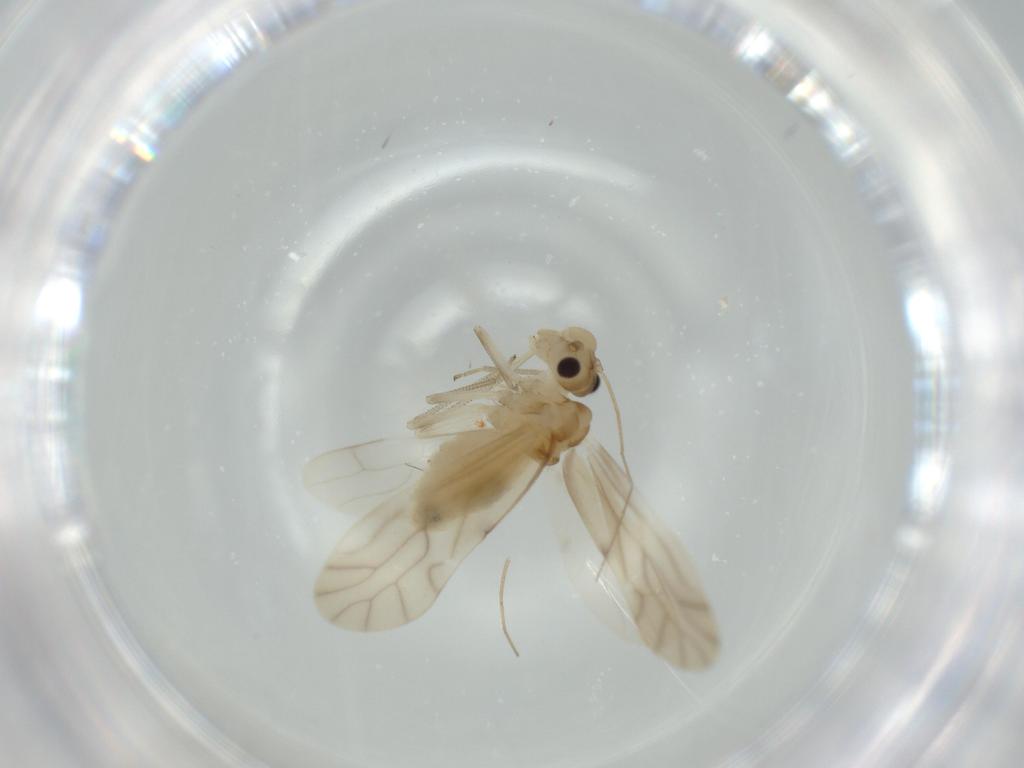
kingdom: Animalia
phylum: Arthropoda
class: Insecta
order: Psocodea
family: Caeciliusidae
